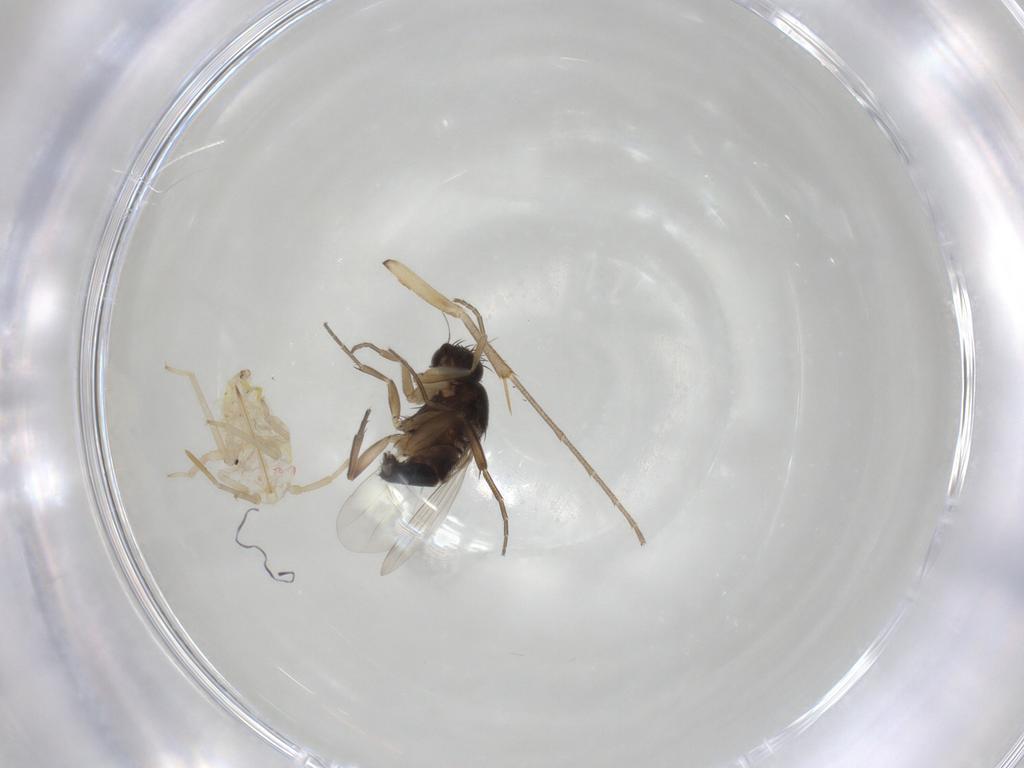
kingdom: Animalia
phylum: Arthropoda
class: Insecta
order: Diptera
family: Phoridae
